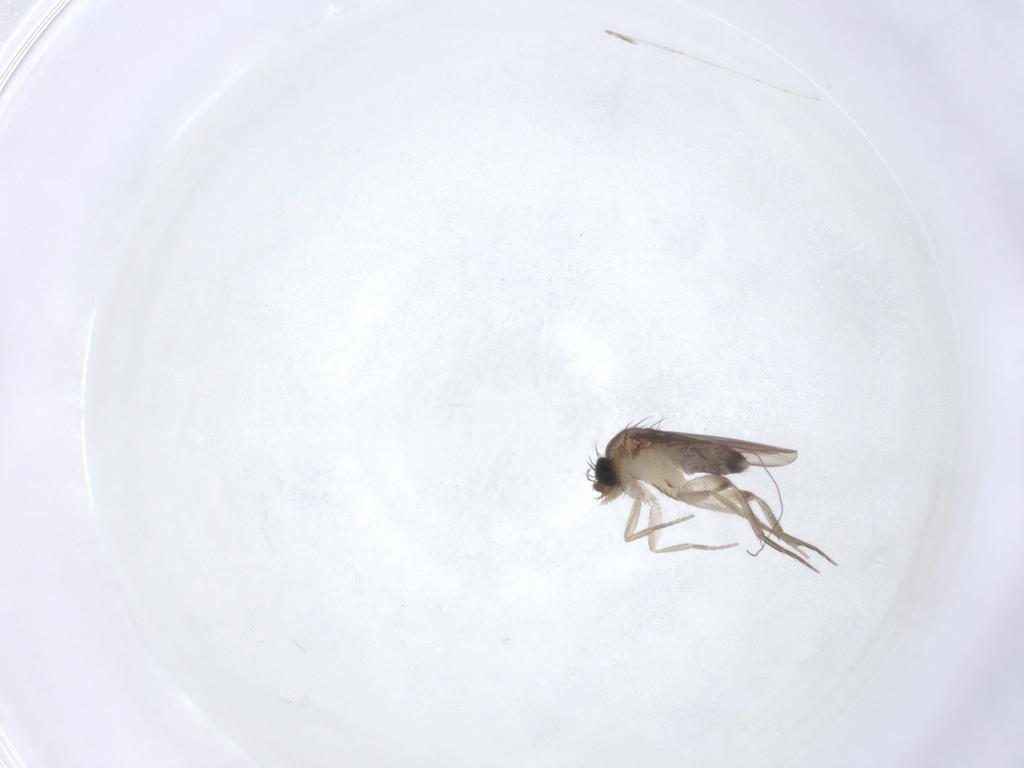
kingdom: Animalia
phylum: Arthropoda
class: Insecta
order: Diptera
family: Phoridae
